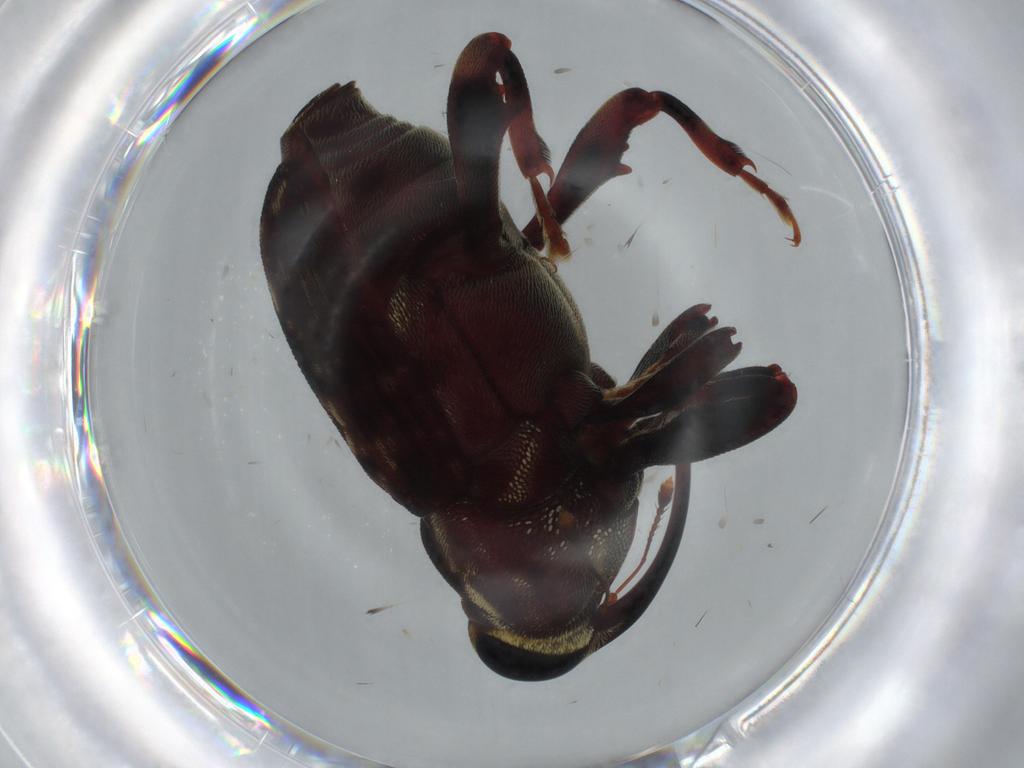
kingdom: Animalia
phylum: Arthropoda
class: Insecta
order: Coleoptera
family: Curculionidae
